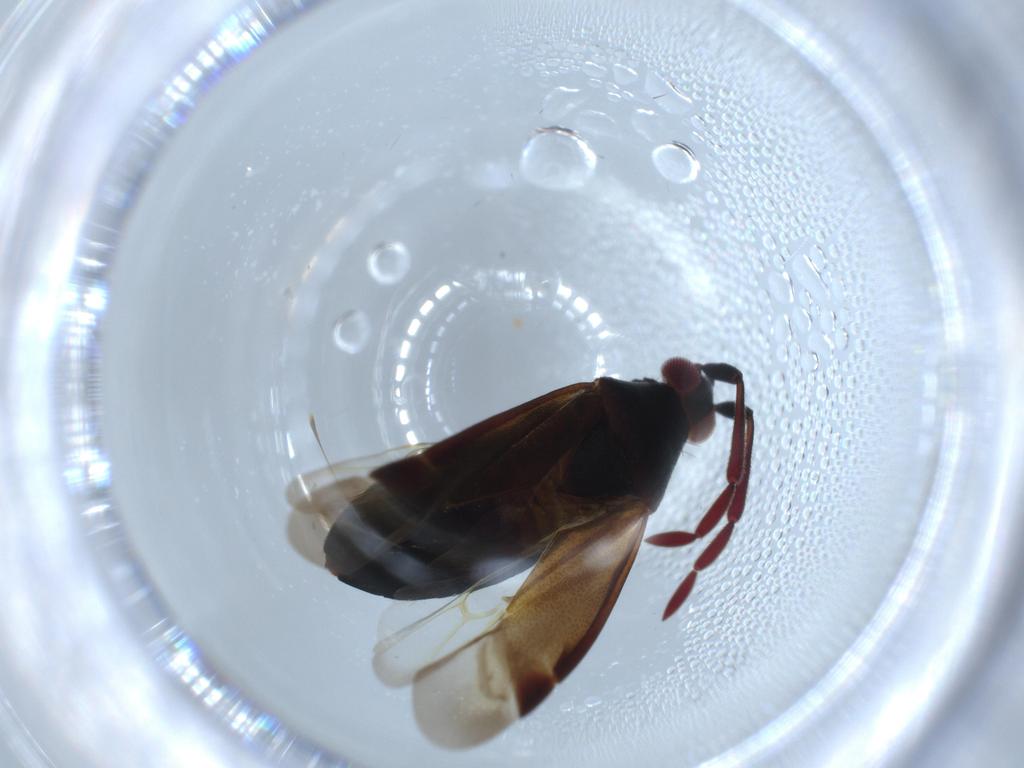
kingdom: Animalia
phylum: Arthropoda
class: Insecta
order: Hemiptera
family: Miridae
